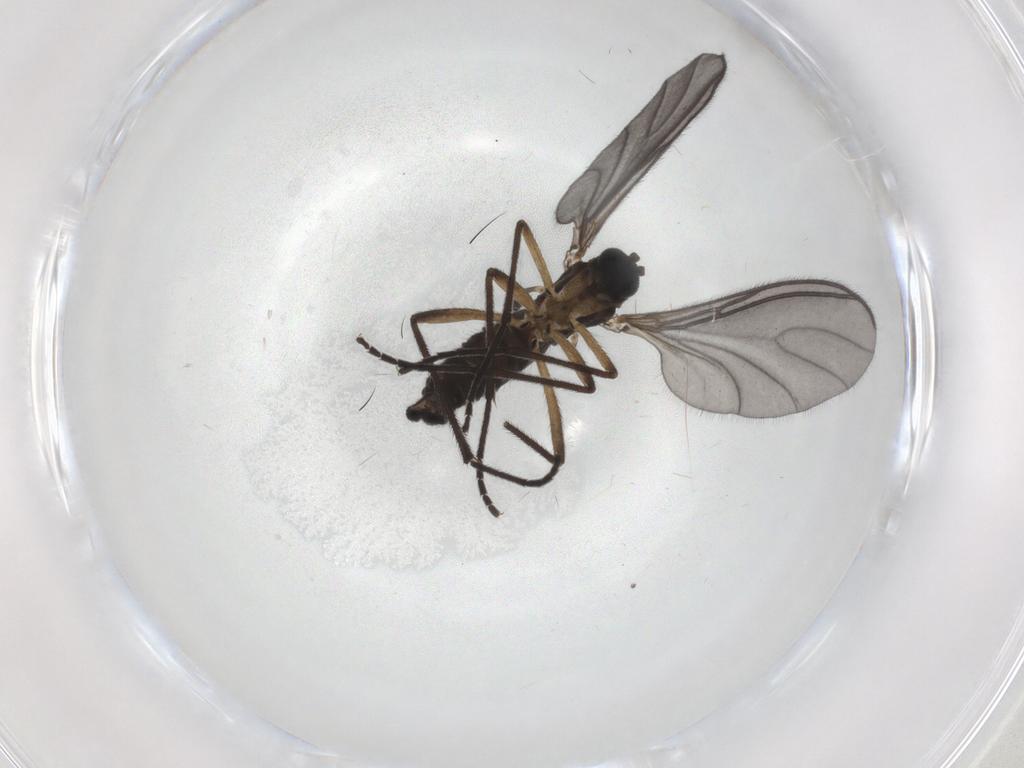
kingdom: Animalia
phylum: Arthropoda
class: Insecta
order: Diptera
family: Sciaridae
